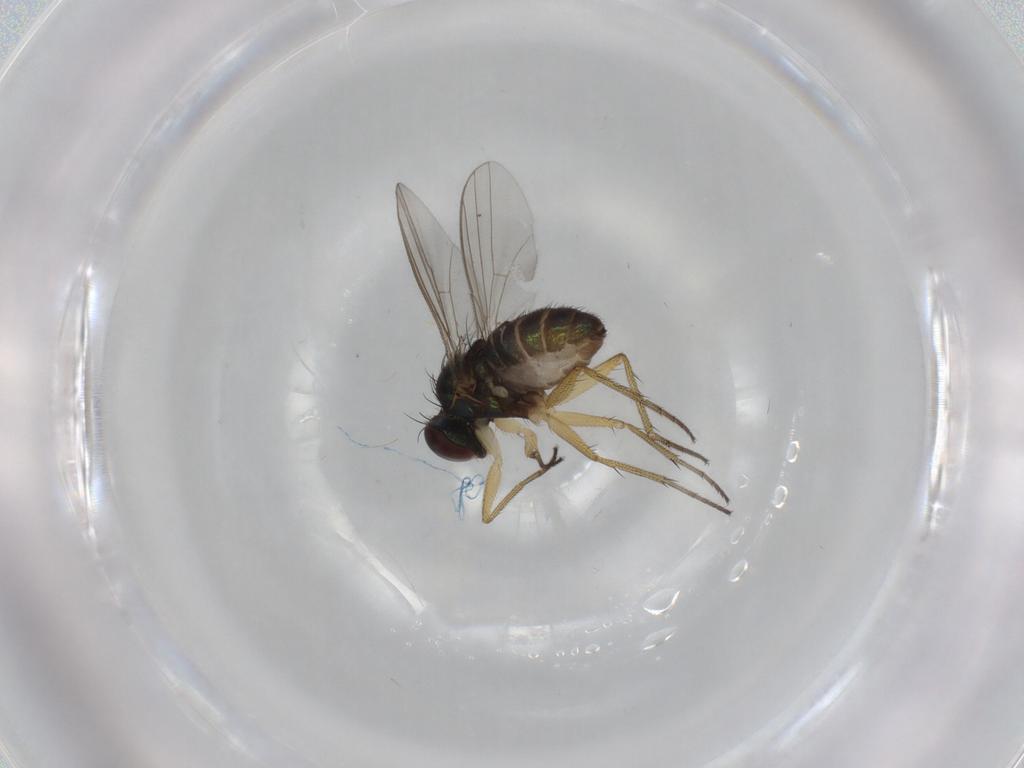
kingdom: Animalia
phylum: Arthropoda
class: Insecta
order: Diptera
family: Dolichopodidae
